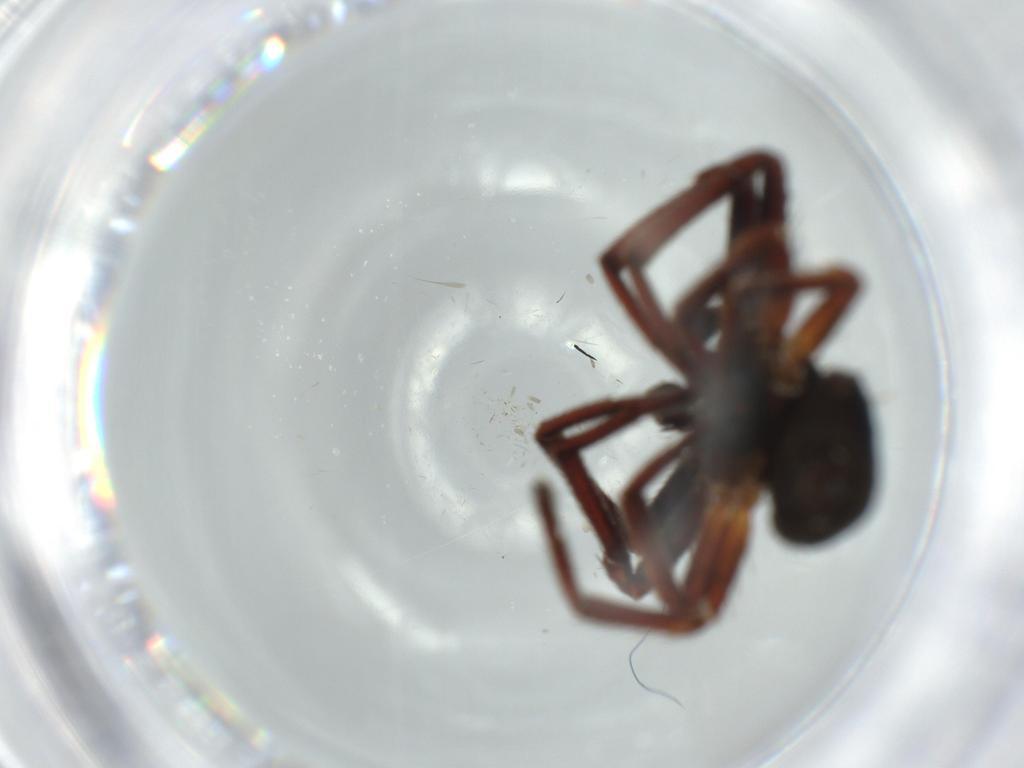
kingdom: Animalia
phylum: Arthropoda
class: Arachnida
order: Araneae
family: Thomisidae
